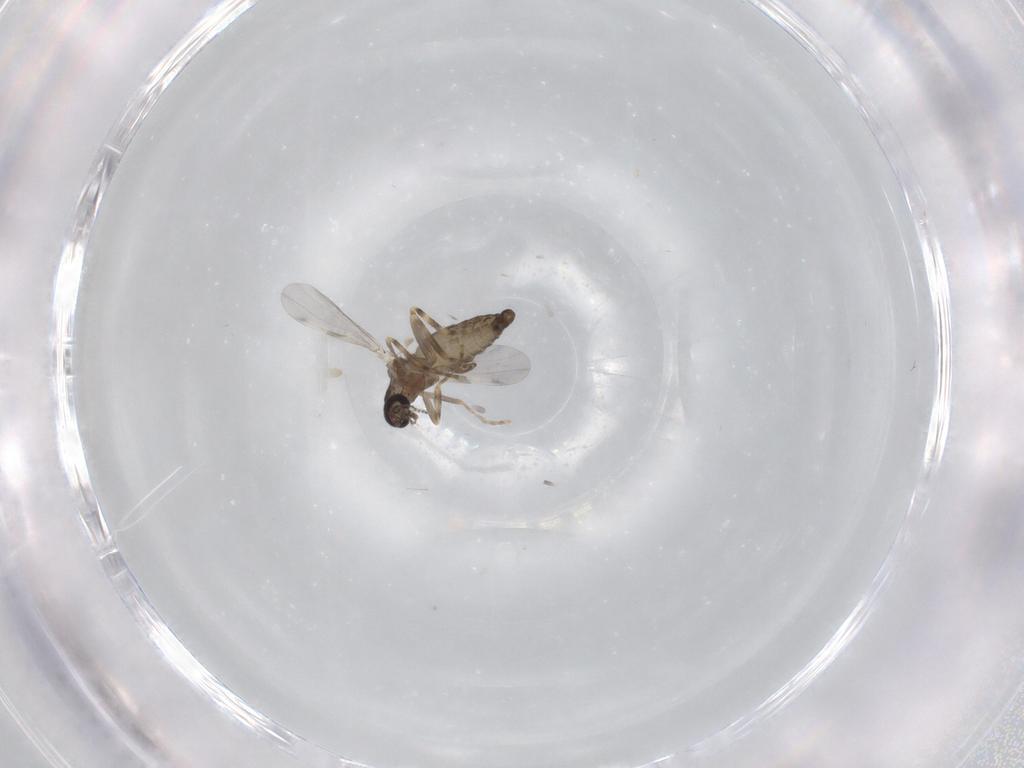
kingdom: Animalia
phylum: Arthropoda
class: Insecta
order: Diptera
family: Ceratopogonidae
